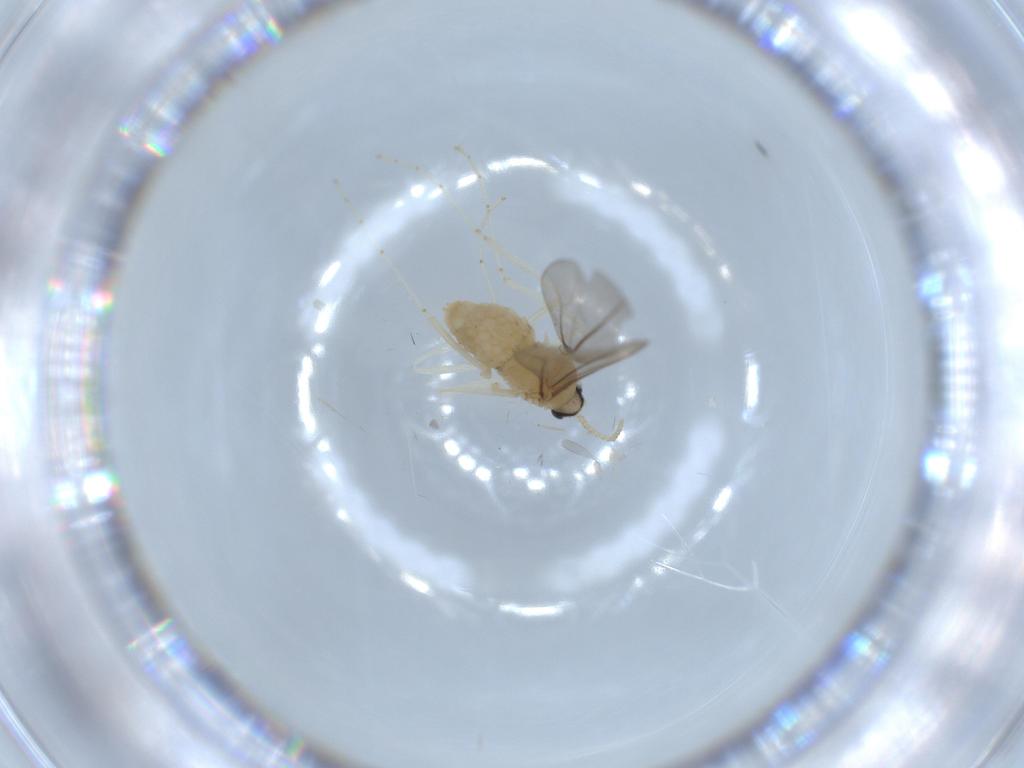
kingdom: Animalia
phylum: Arthropoda
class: Insecta
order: Diptera
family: Cecidomyiidae
